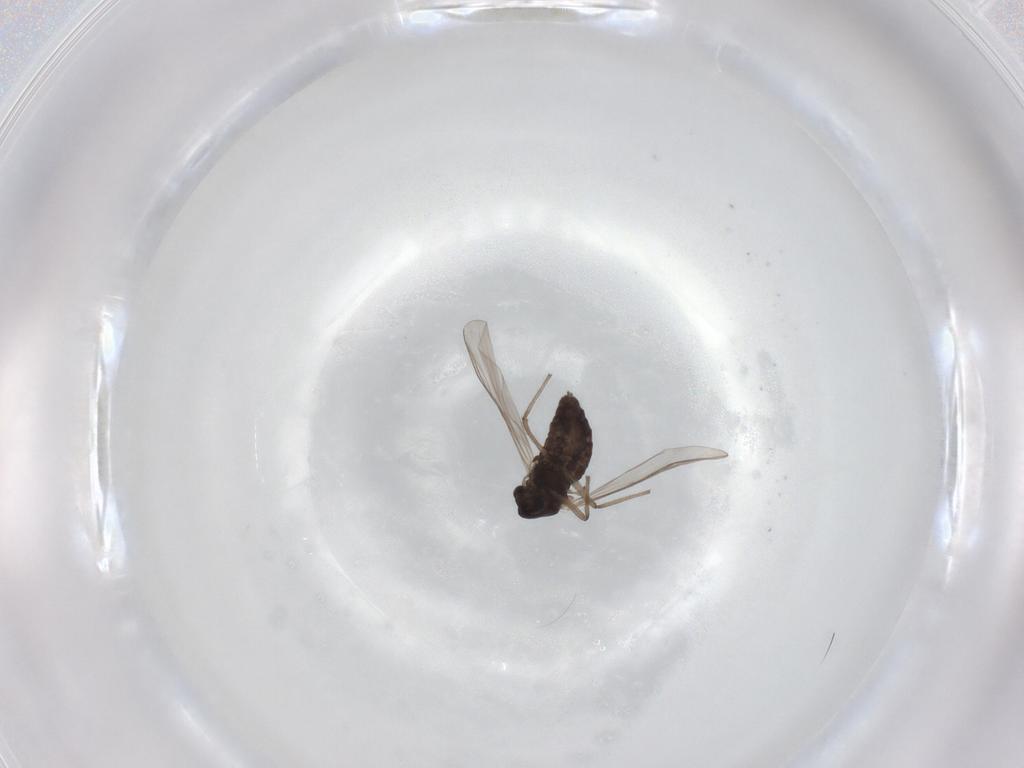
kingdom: Animalia
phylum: Arthropoda
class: Insecta
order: Diptera
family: Chironomidae
